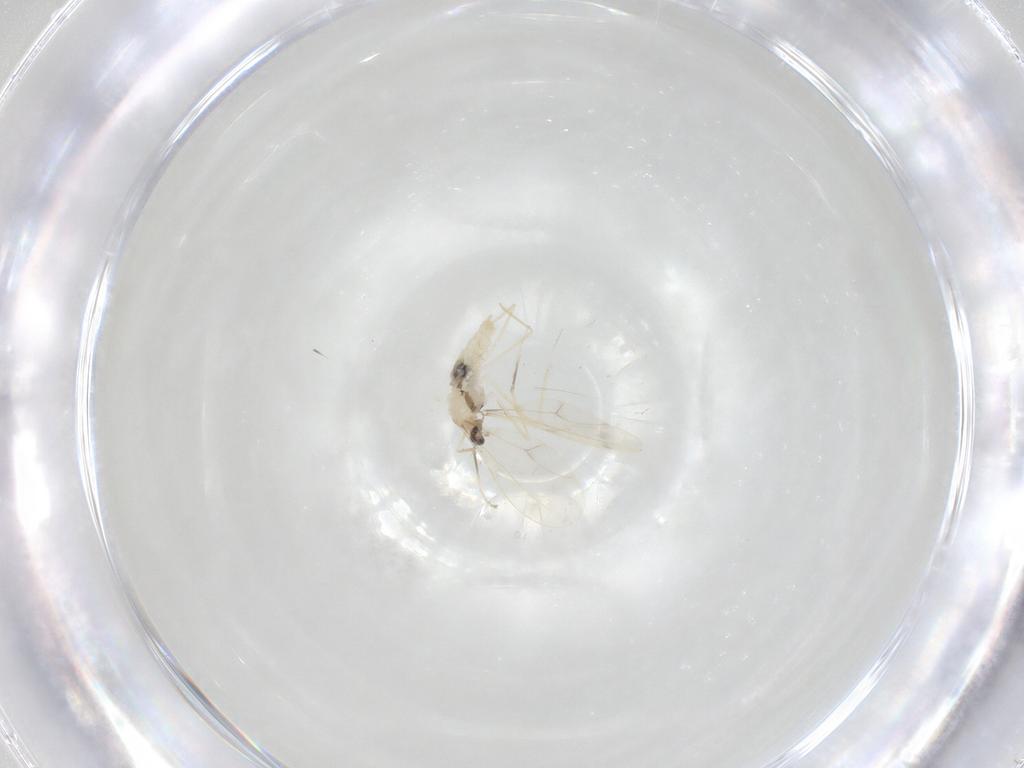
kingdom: Animalia
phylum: Arthropoda
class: Insecta
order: Diptera
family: Cecidomyiidae
